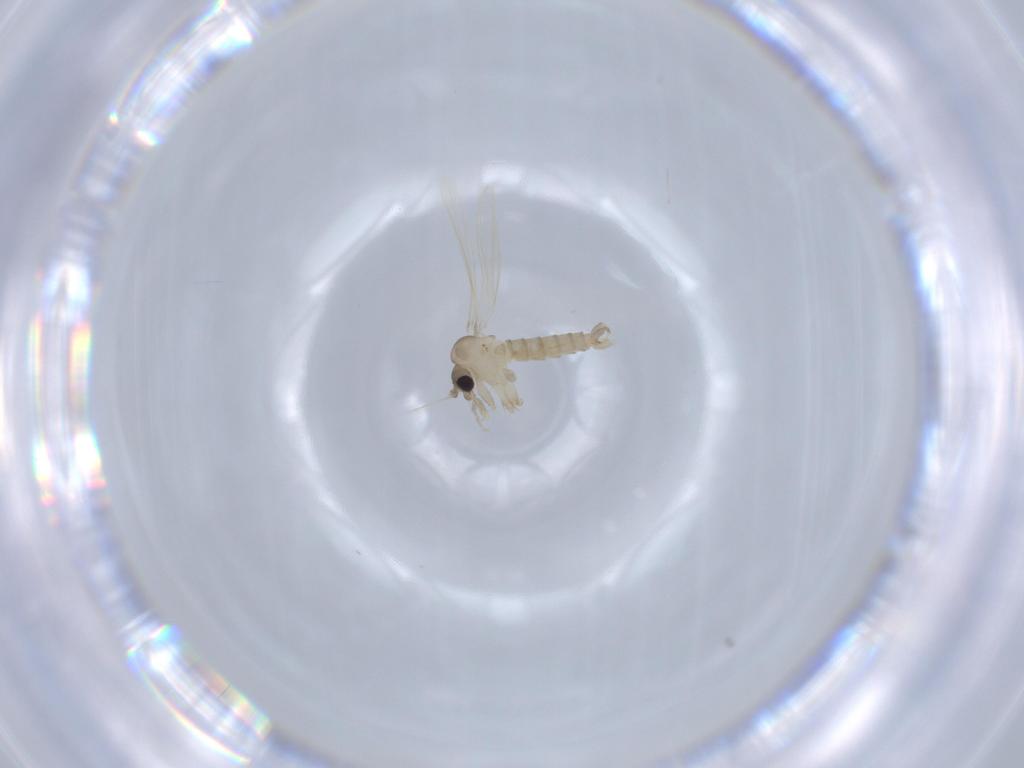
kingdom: Animalia
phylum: Arthropoda
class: Insecta
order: Diptera
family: Psychodidae
